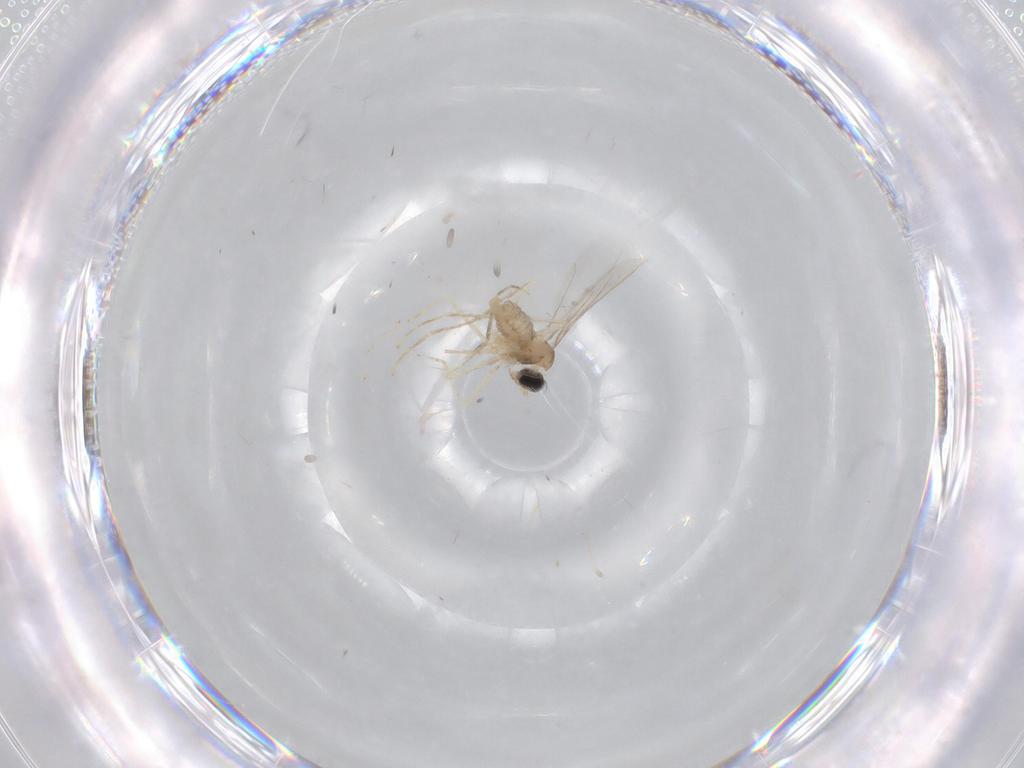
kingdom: Animalia
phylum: Arthropoda
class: Insecta
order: Diptera
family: Cecidomyiidae
